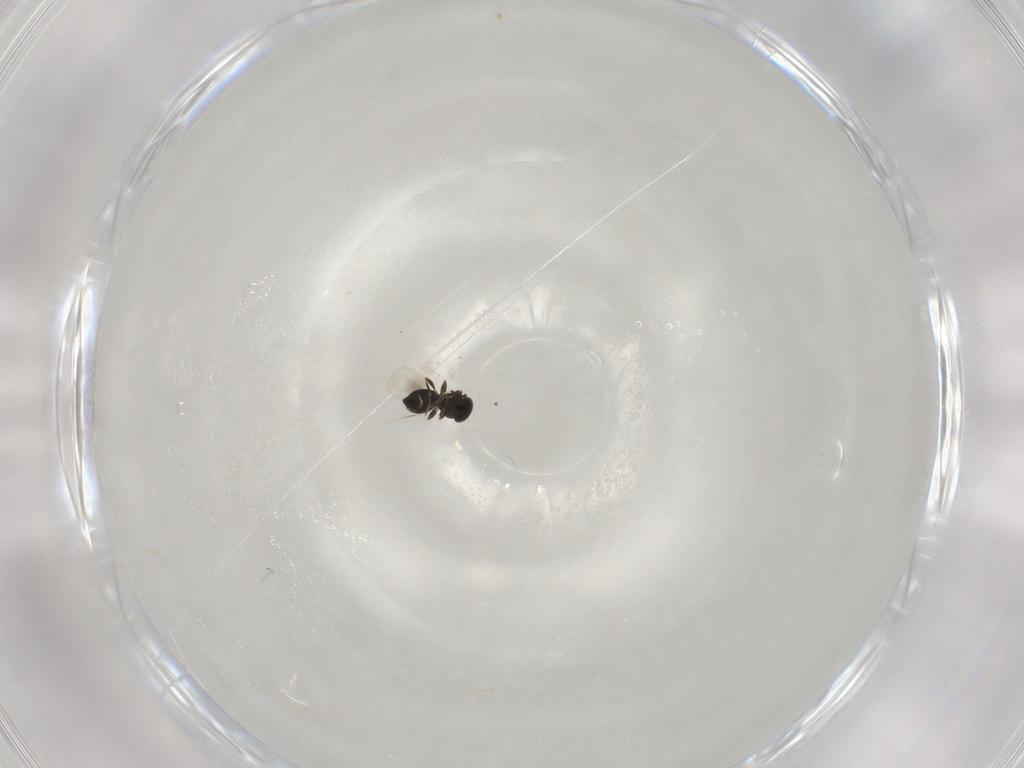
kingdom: Animalia
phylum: Arthropoda
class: Insecta
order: Hymenoptera
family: Platygastridae
